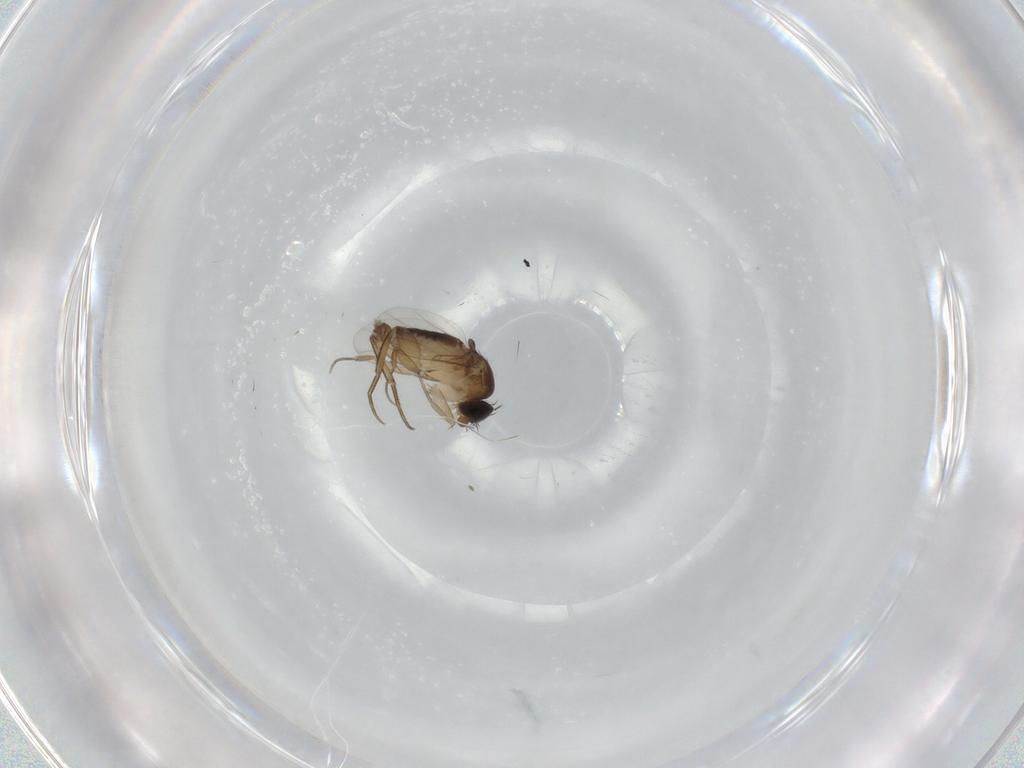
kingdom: Animalia
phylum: Arthropoda
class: Insecta
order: Diptera
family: Phoridae
